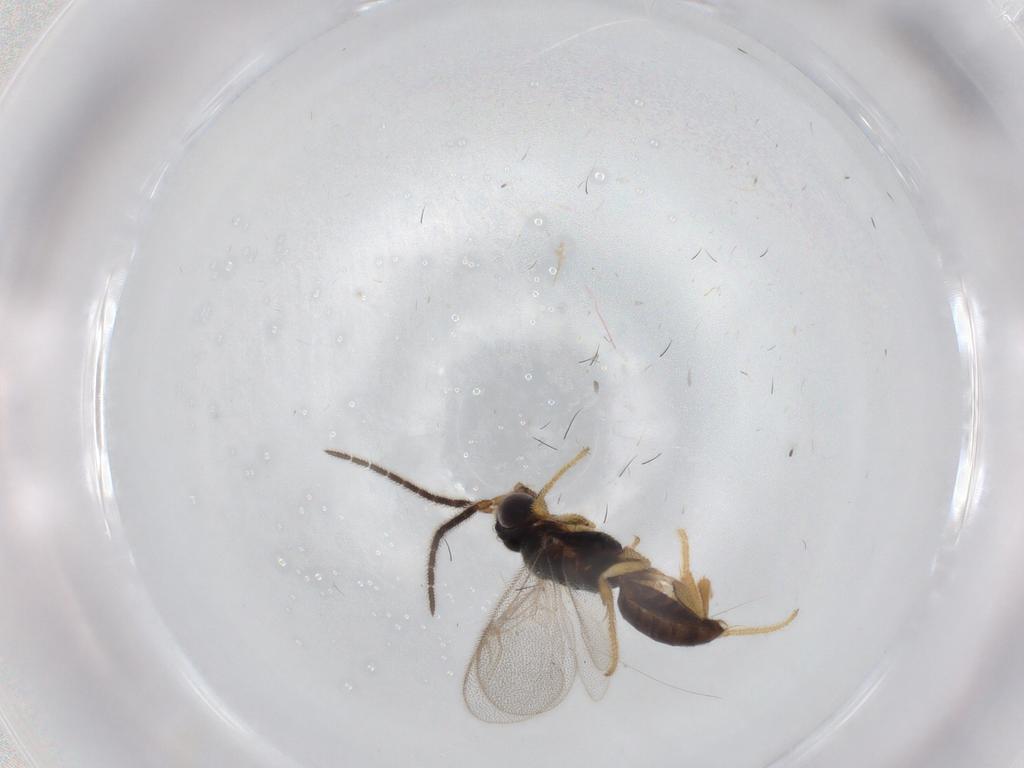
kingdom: Animalia
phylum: Arthropoda
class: Insecta
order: Hymenoptera
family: Dryinidae
